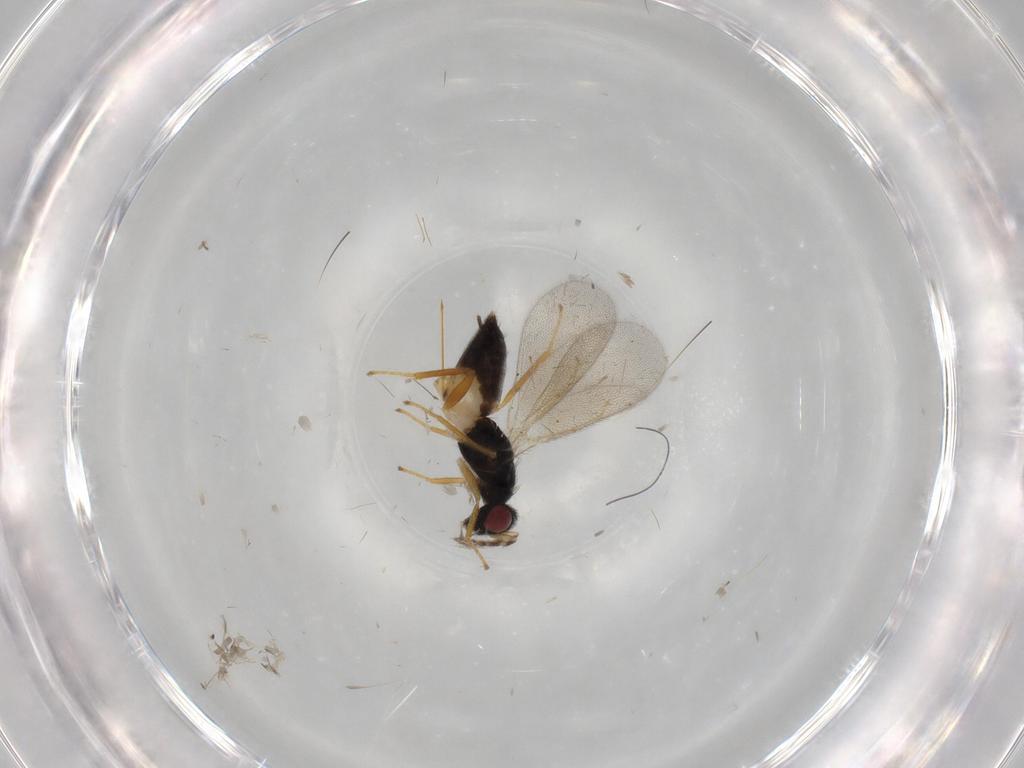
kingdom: Animalia
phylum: Arthropoda
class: Insecta
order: Hymenoptera
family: Eulophidae
